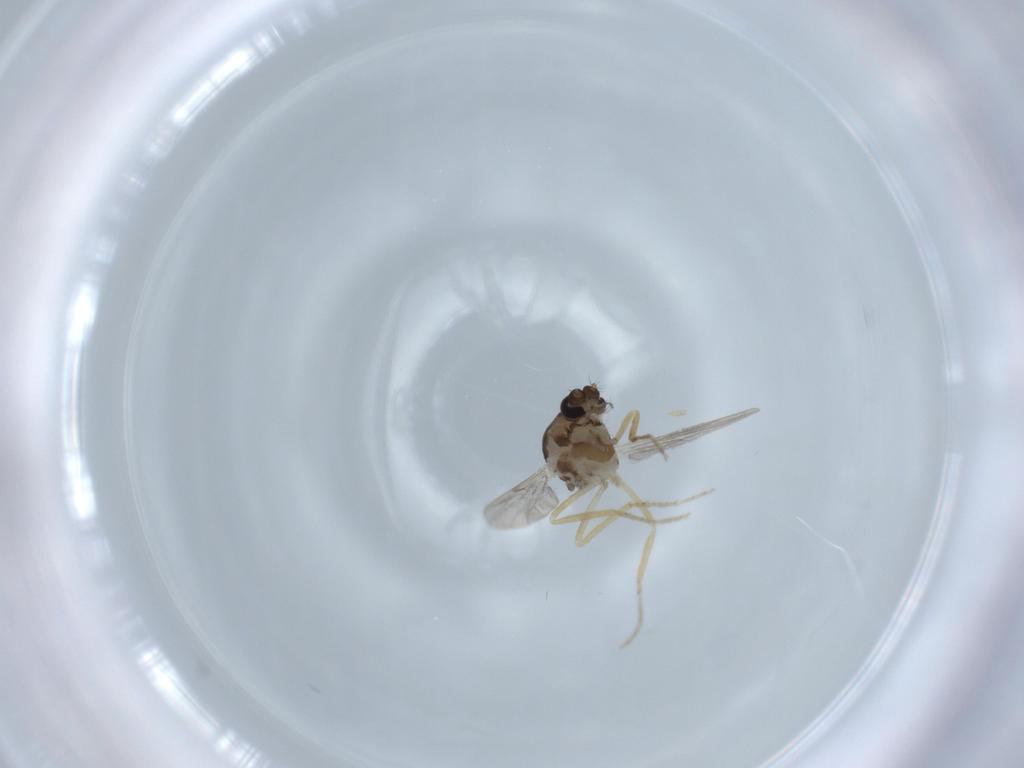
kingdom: Animalia
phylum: Arthropoda
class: Insecta
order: Diptera
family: Ceratopogonidae
